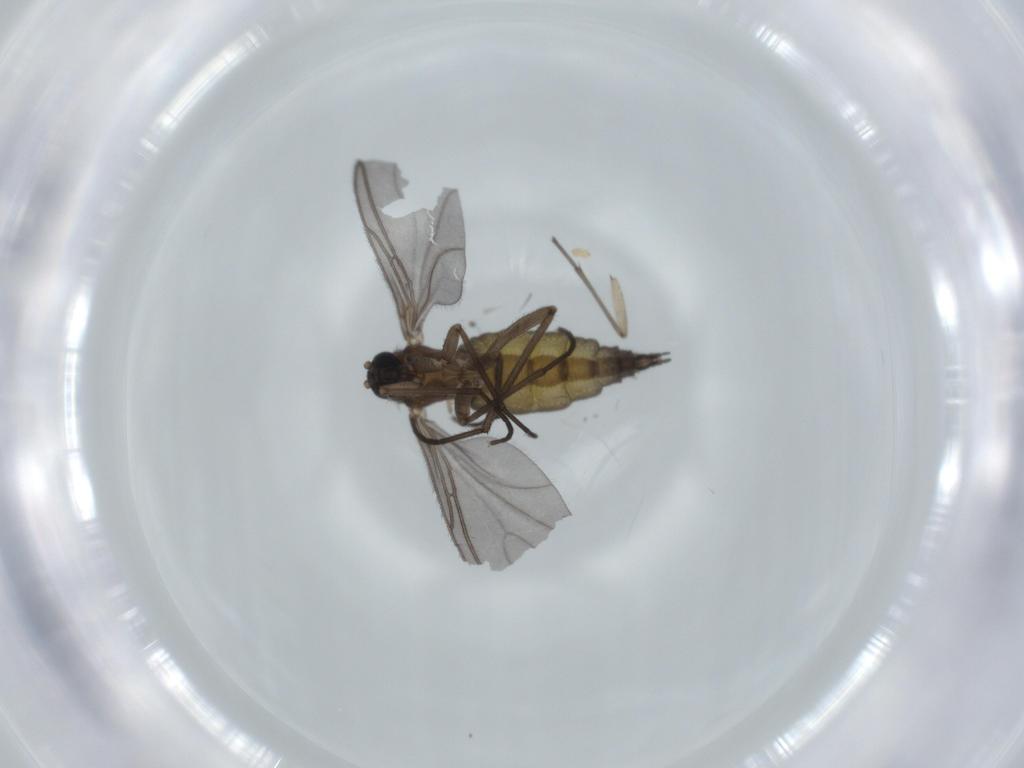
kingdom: Animalia
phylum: Arthropoda
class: Insecta
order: Diptera
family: Sciaridae
